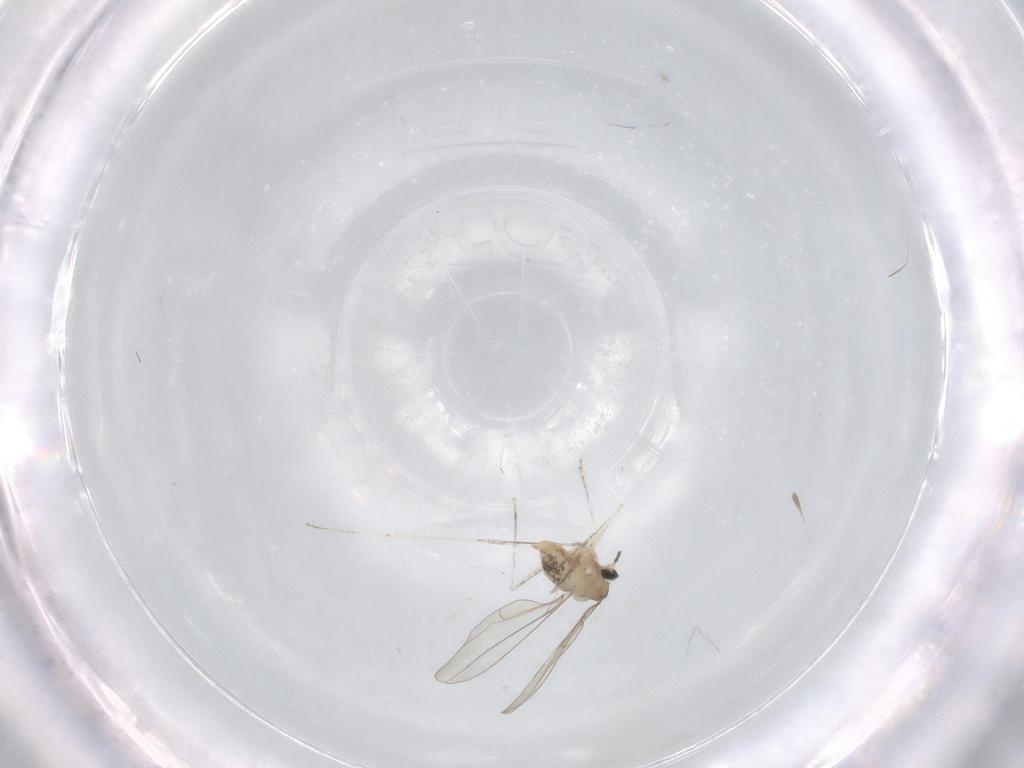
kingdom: Animalia
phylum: Arthropoda
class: Insecta
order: Diptera
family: Cecidomyiidae
